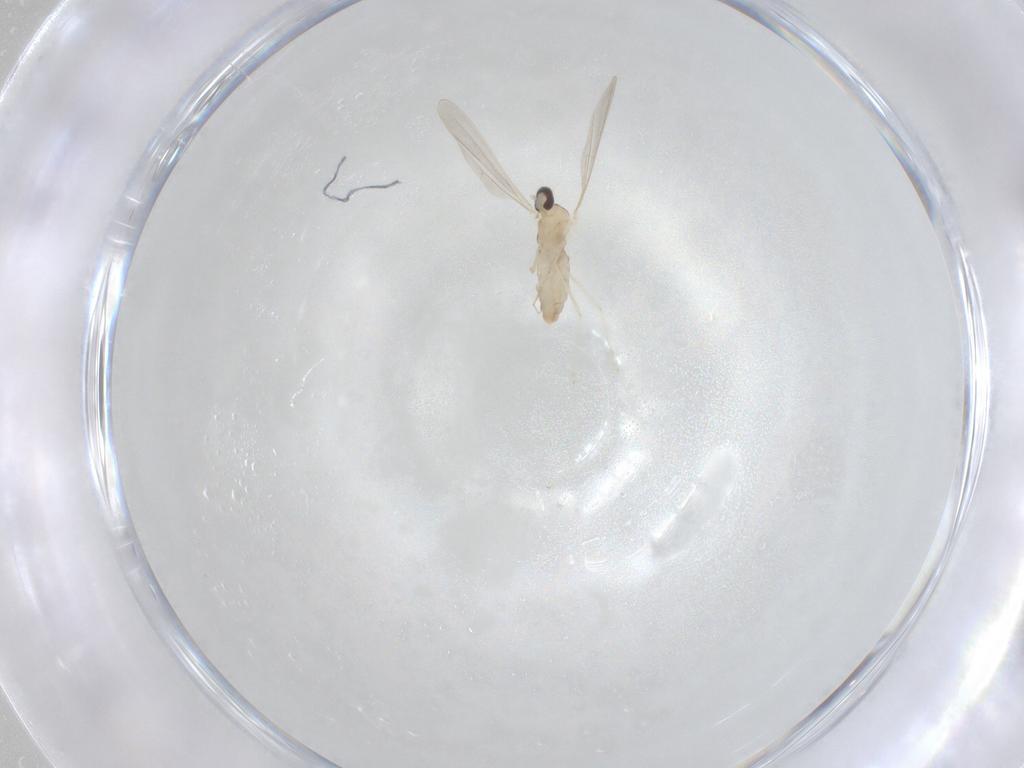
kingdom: Animalia
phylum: Arthropoda
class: Insecta
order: Diptera
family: Cecidomyiidae
